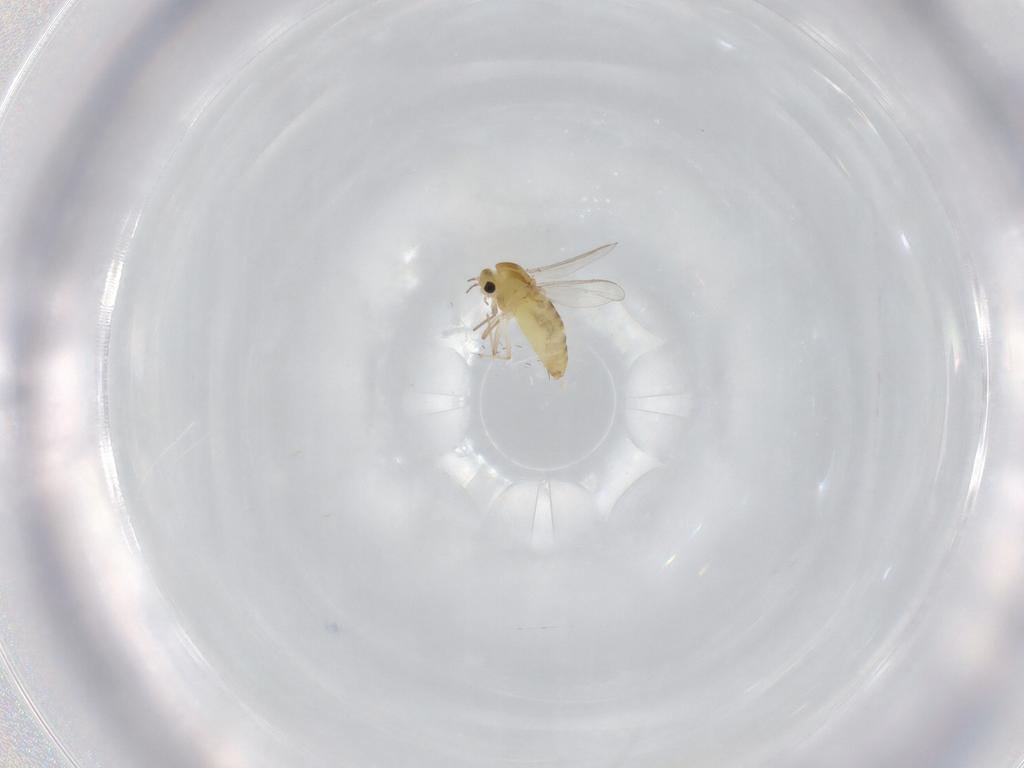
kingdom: Animalia
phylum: Arthropoda
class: Insecta
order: Diptera
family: Chironomidae
